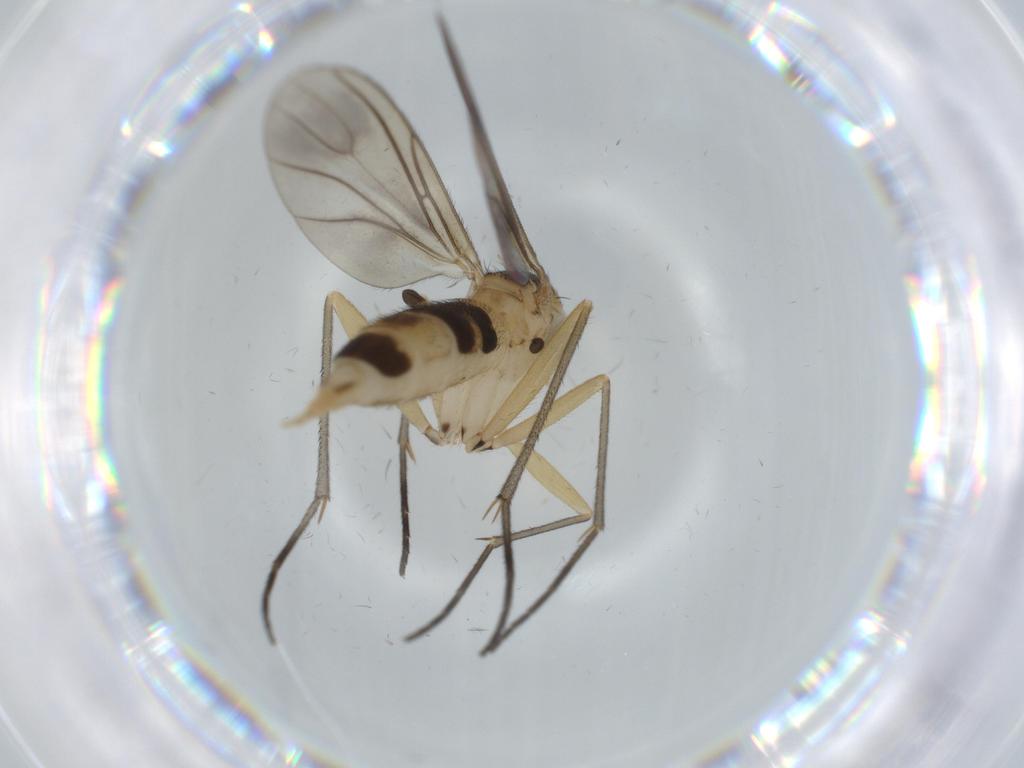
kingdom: Animalia
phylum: Arthropoda
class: Insecta
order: Diptera
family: Sciaridae
